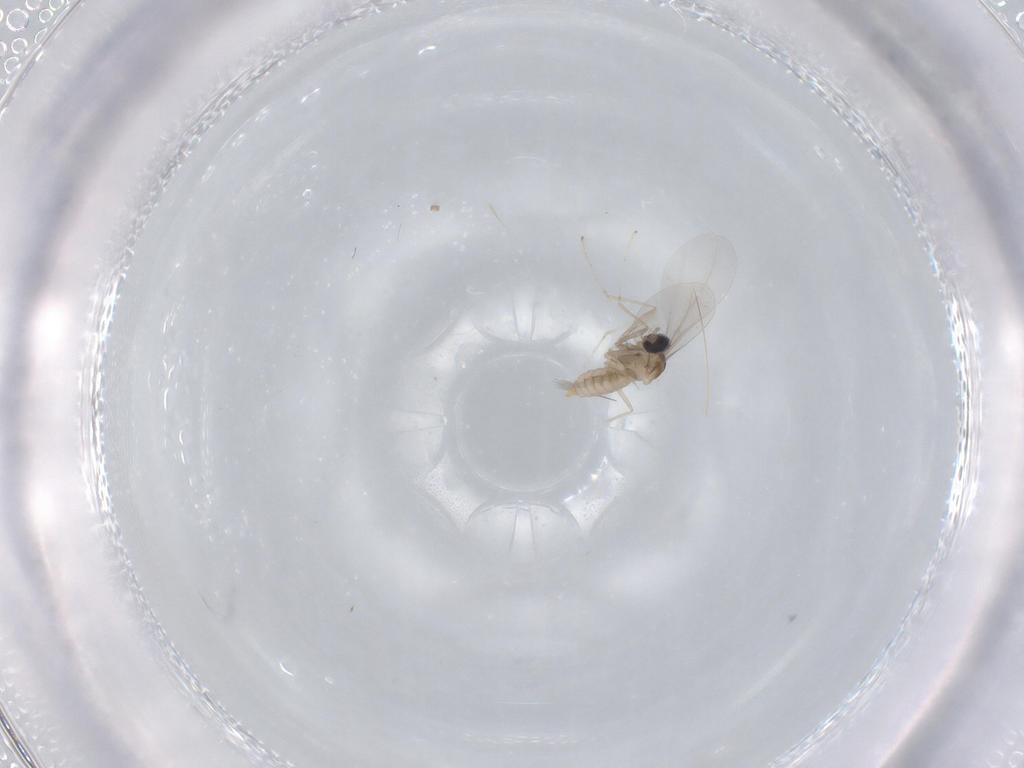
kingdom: Animalia
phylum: Arthropoda
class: Insecta
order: Diptera
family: Cecidomyiidae
